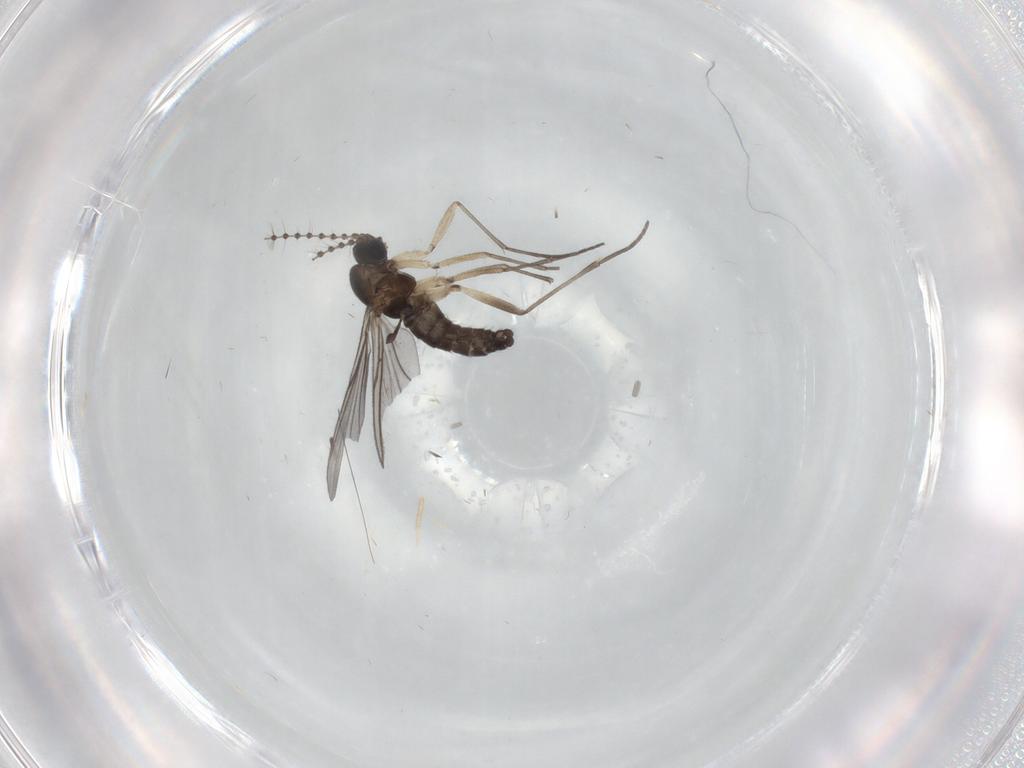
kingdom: Animalia
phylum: Arthropoda
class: Insecta
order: Diptera
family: Sciaridae
